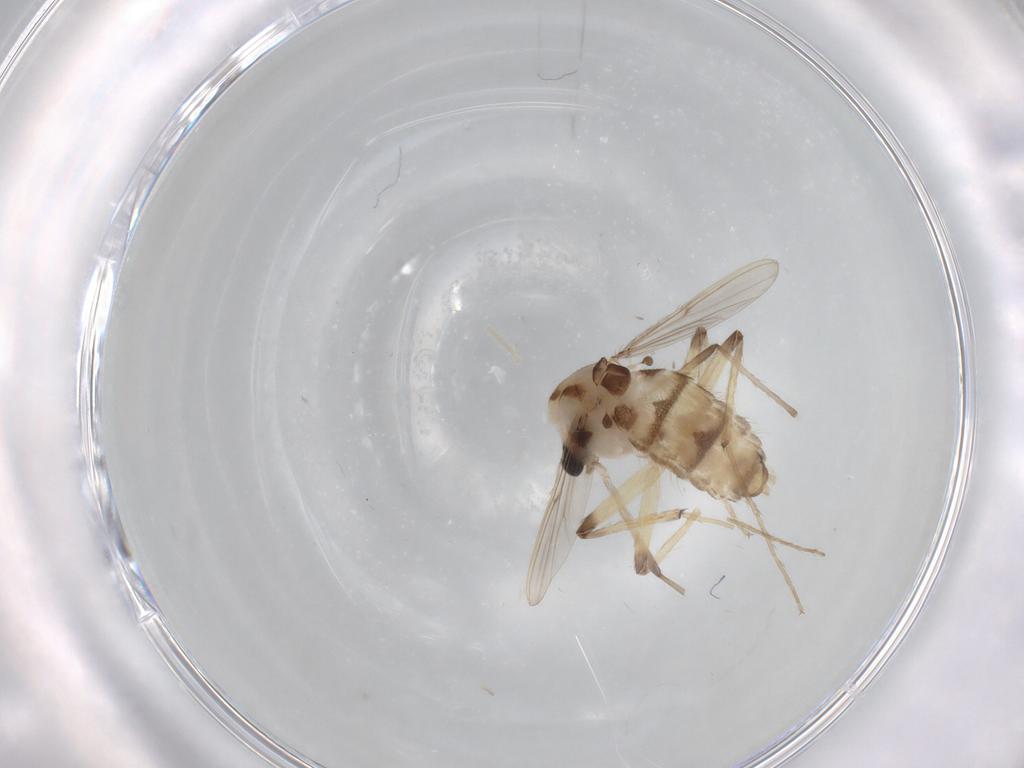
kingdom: Animalia
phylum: Arthropoda
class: Insecta
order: Diptera
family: Chironomidae
